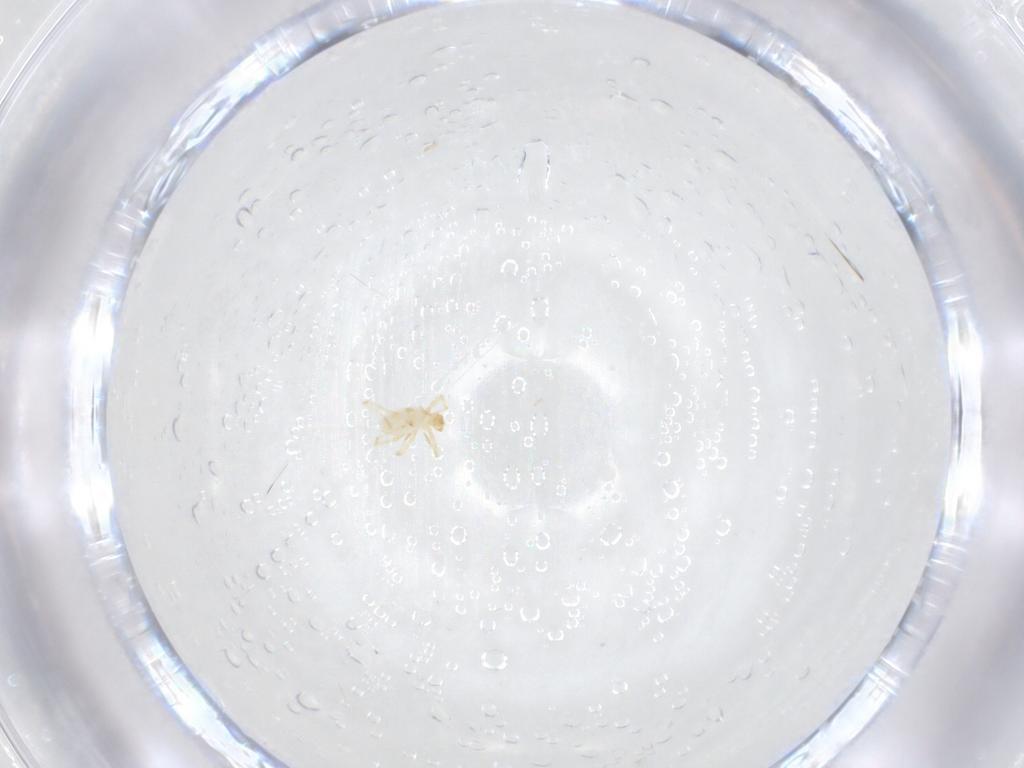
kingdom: Animalia
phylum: Arthropoda
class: Arachnida
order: Trombidiformes
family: Erythraeidae
